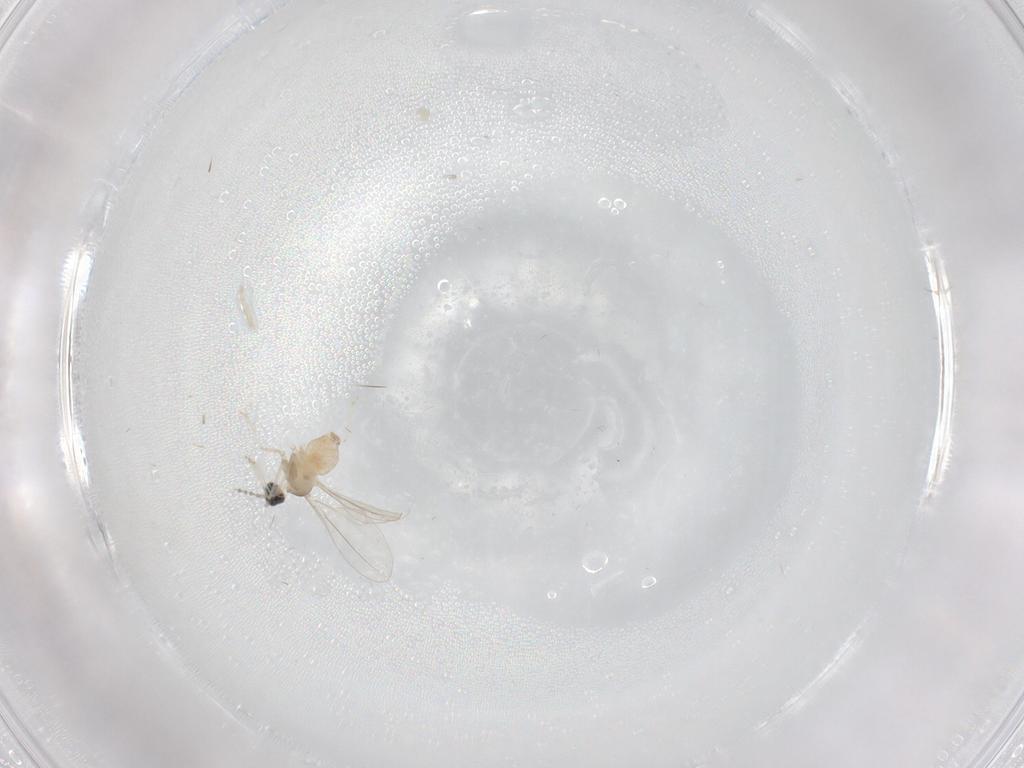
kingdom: Animalia
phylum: Arthropoda
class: Insecta
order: Diptera
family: Cecidomyiidae
